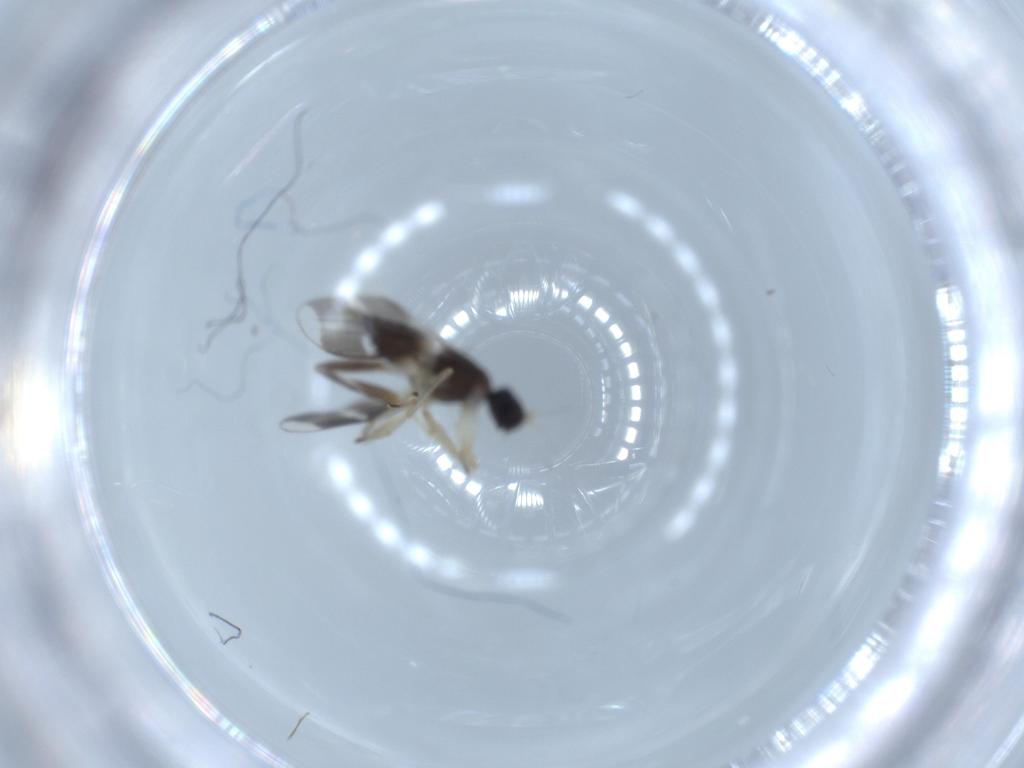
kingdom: Animalia
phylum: Arthropoda
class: Insecta
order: Diptera
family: Hybotidae
